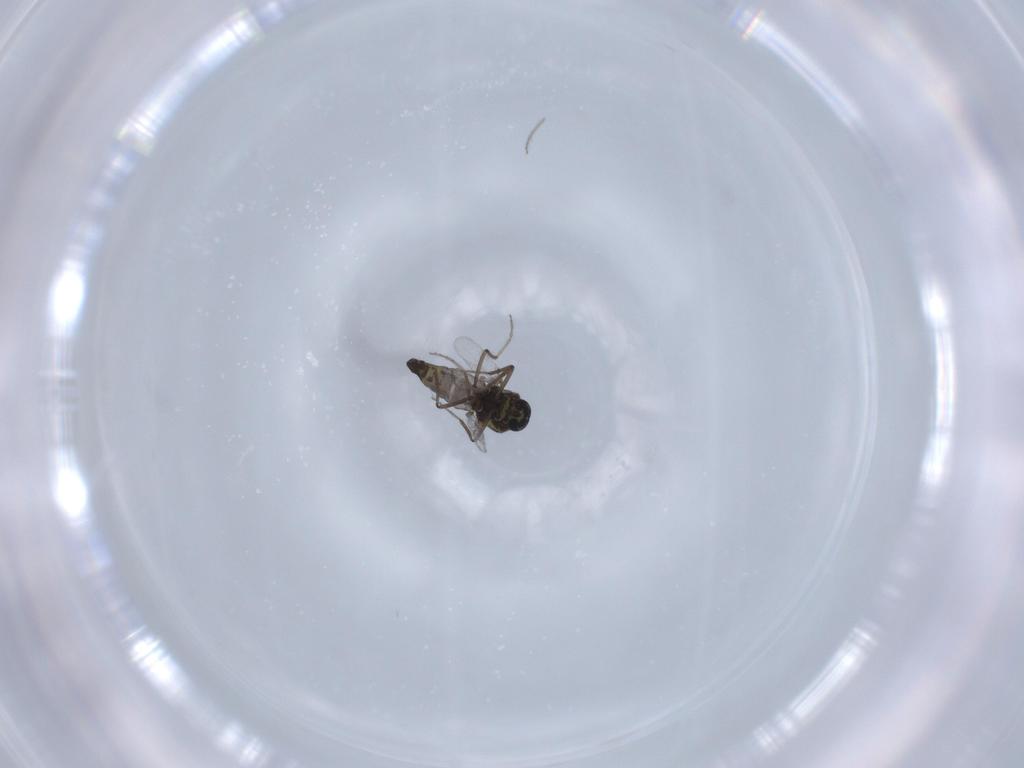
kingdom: Animalia
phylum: Arthropoda
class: Insecta
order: Diptera
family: Ceratopogonidae
